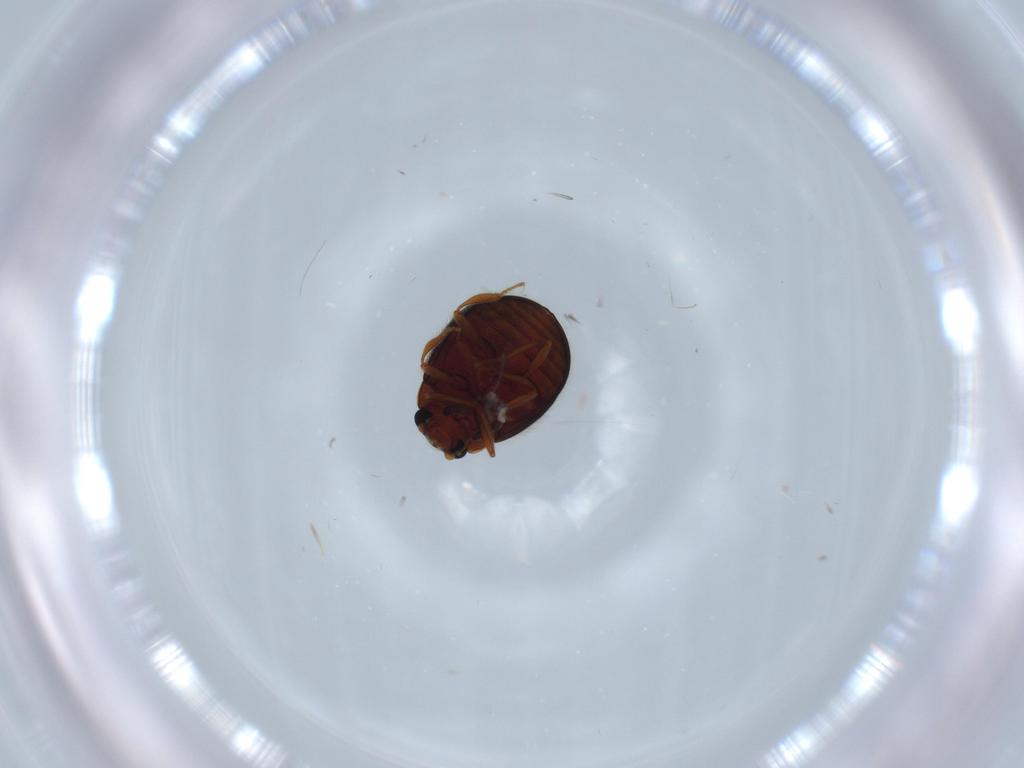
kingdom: Animalia
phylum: Arthropoda
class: Insecta
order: Coleoptera
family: Sphindidae
